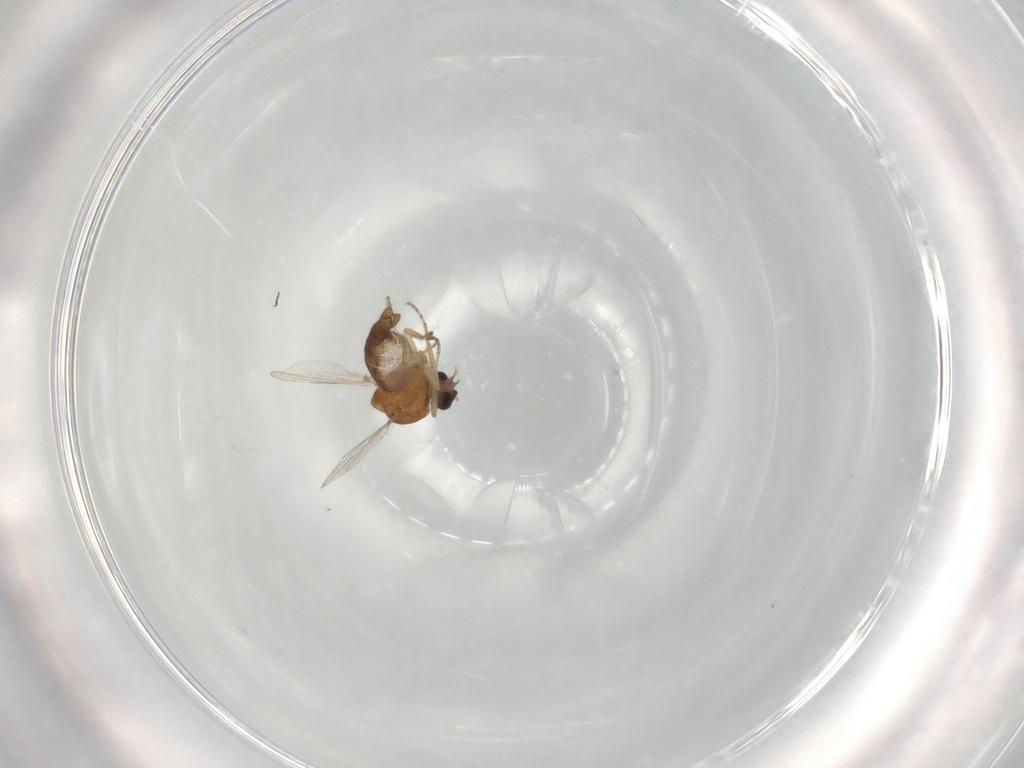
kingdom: Animalia
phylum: Arthropoda
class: Insecta
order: Diptera
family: Ceratopogonidae
